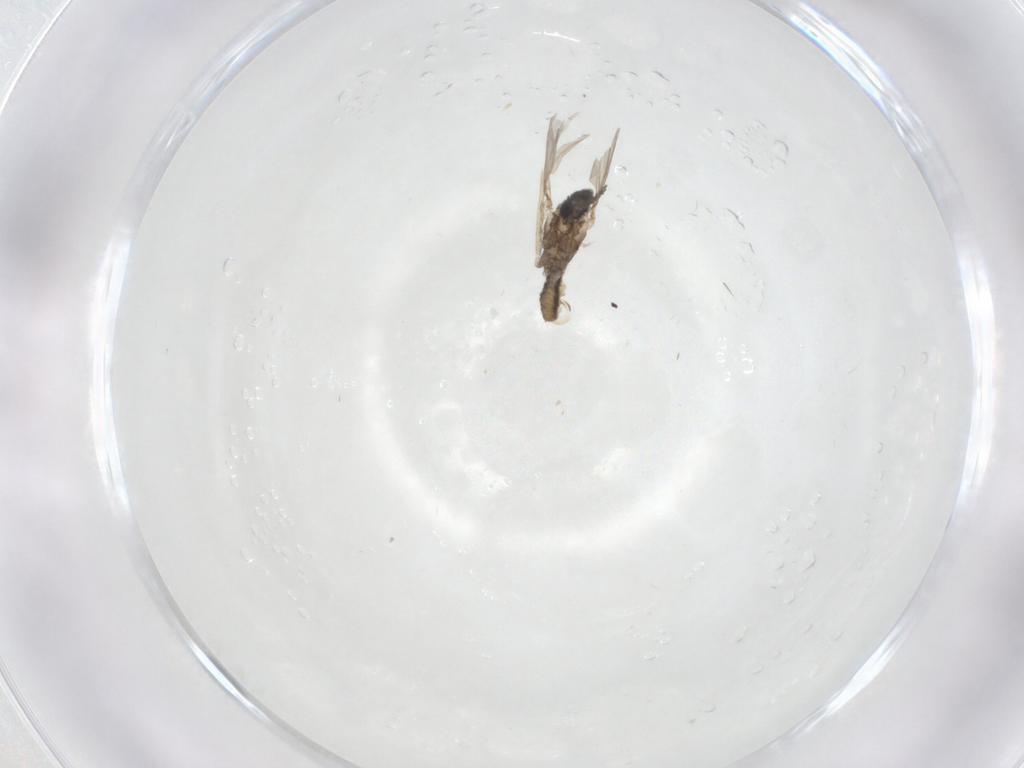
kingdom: Animalia
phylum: Arthropoda
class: Insecta
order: Diptera
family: Cecidomyiidae
